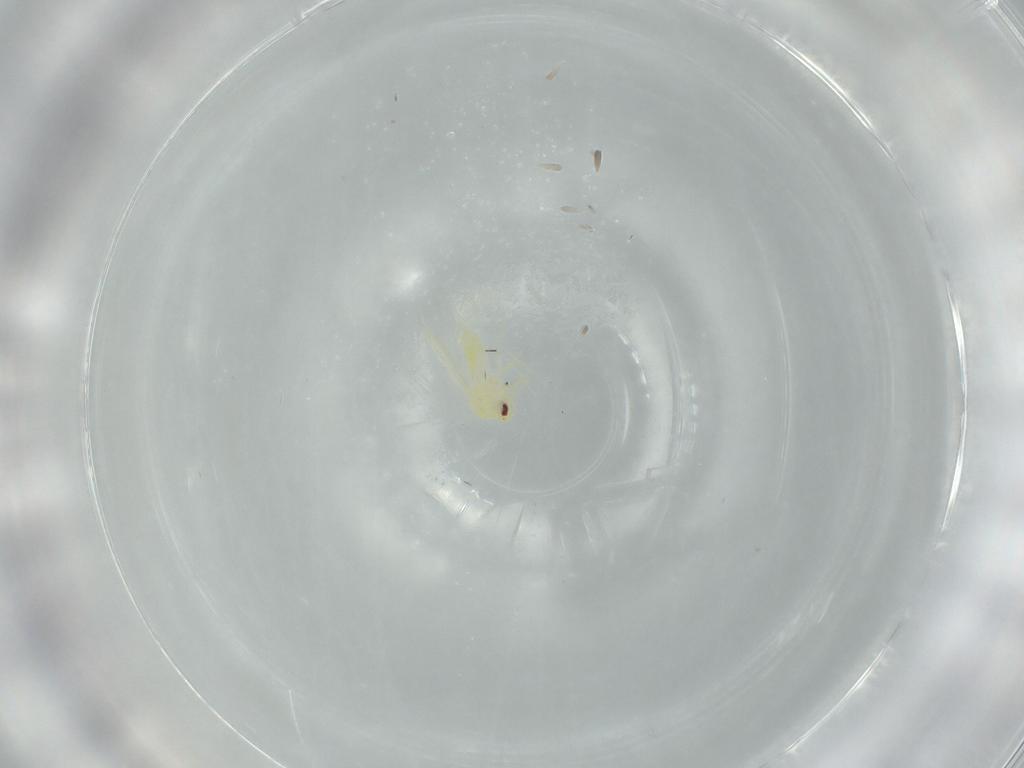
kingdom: Animalia
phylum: Arthropoda
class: Insecta
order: Hemiptera
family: Aleyrodidae
